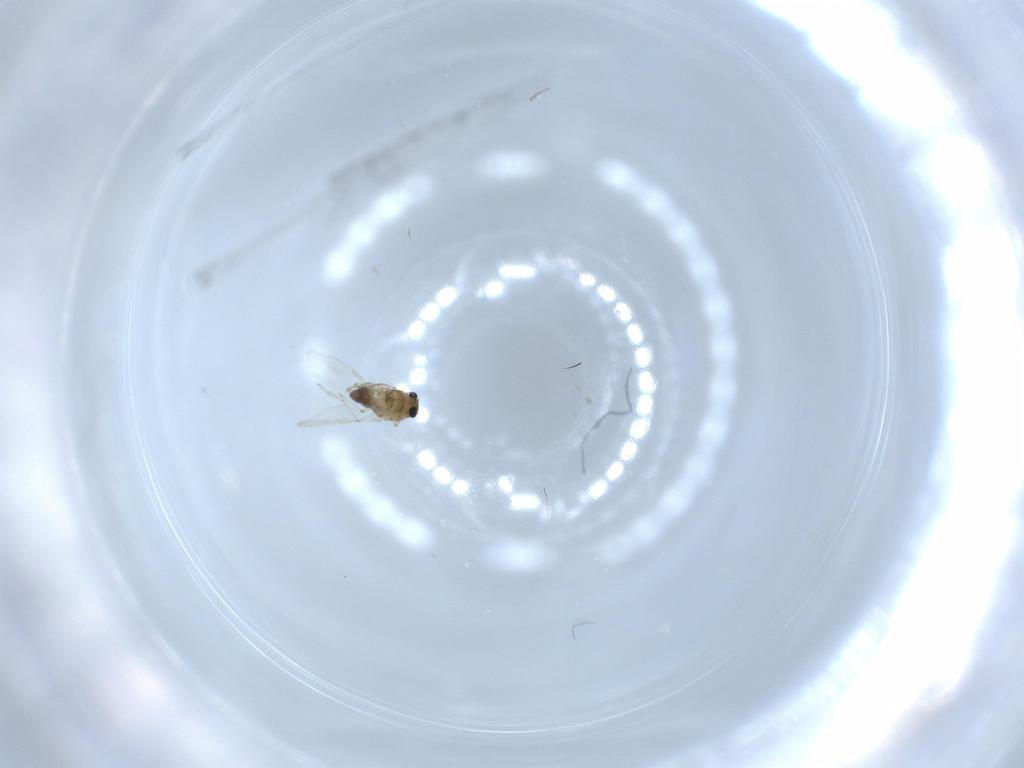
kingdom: Animalia
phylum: Arthropoda
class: Insecta
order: Diptera
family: Chironomidae
